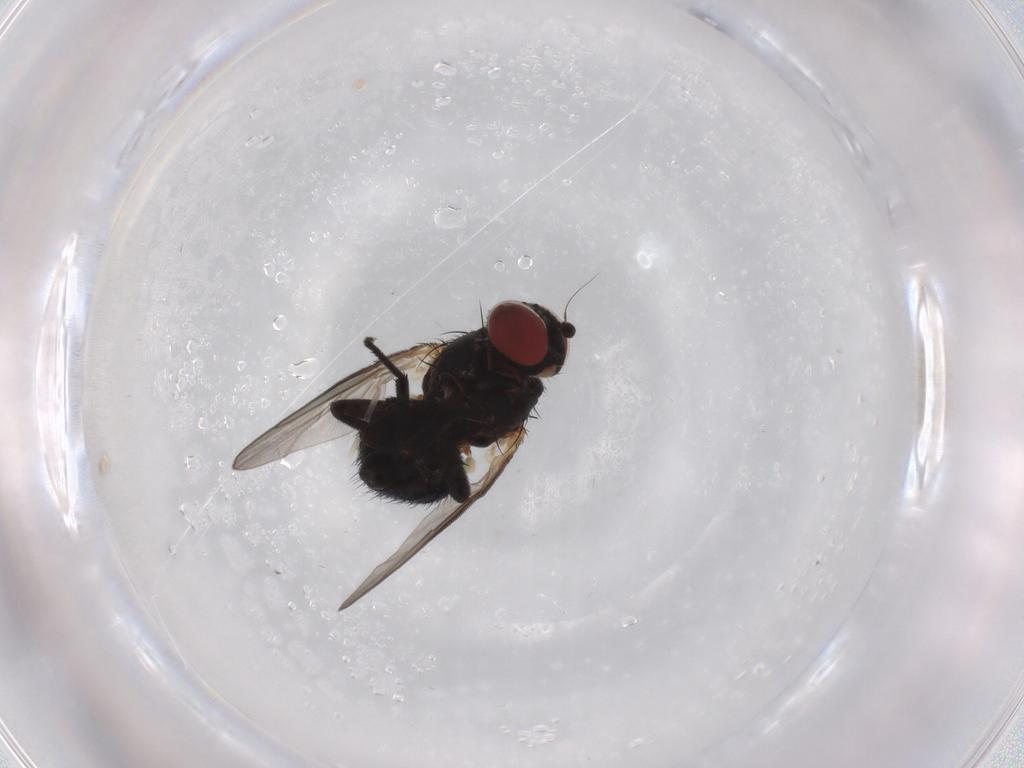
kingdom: Animalia
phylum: Arthropoda
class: Insecta
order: Diptera
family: Agromyzidae
